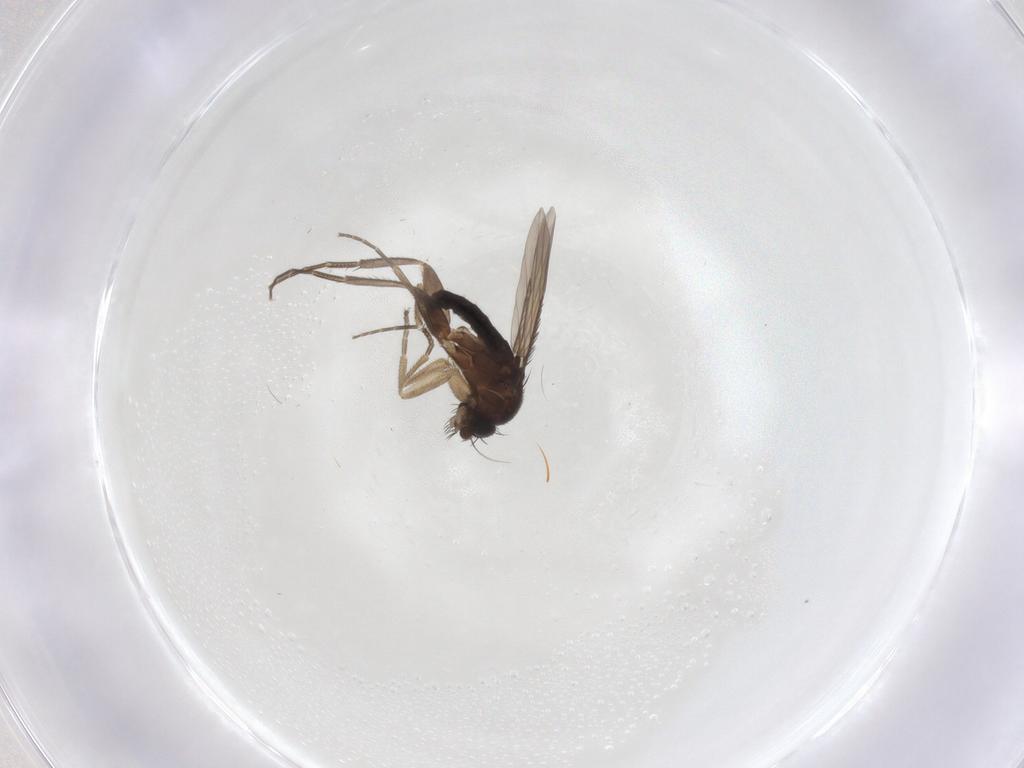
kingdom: Animalia
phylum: Arthropoda
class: Insecta
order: Diptera
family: Phoridae
